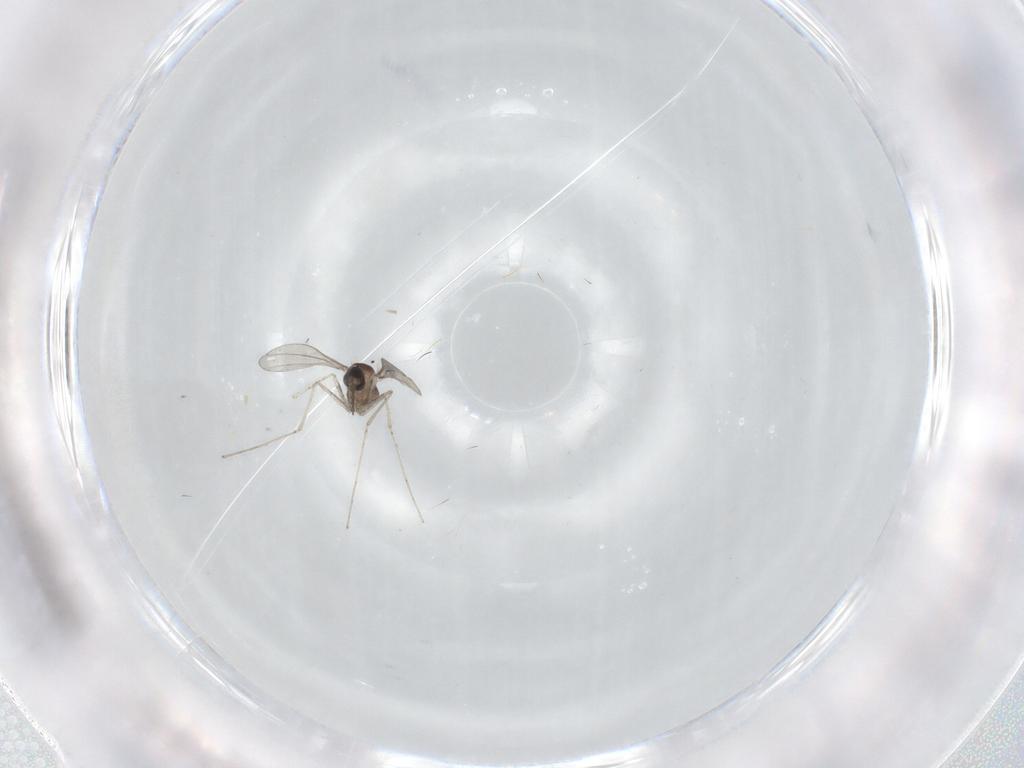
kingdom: Animalia
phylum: Arthropoda
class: Insecta
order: Diptera
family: Cecidomyiidae
